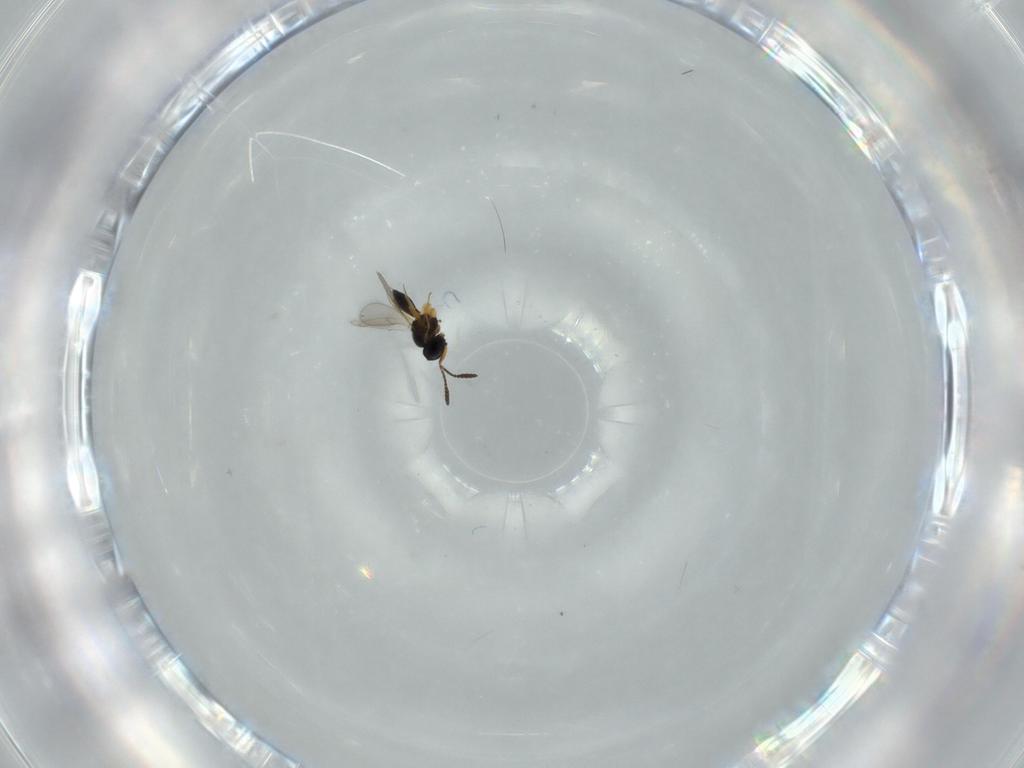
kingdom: Animalia
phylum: Arthropoda
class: Insecta
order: Hymenoptera
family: Scelionidae
